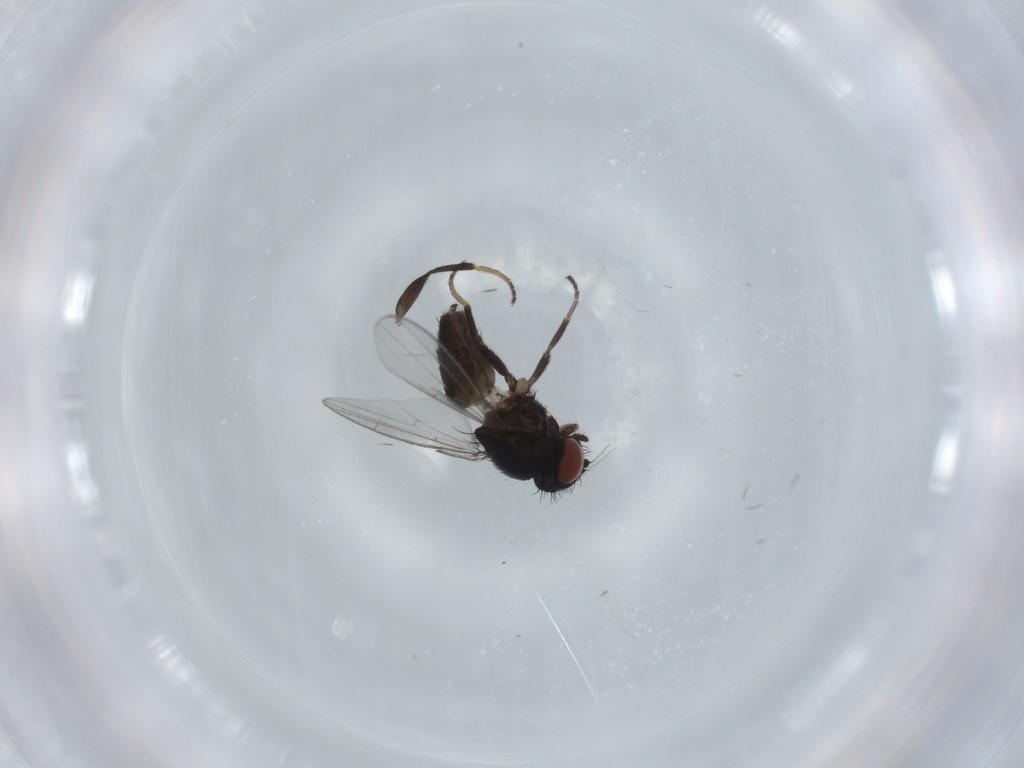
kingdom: Animalia
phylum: Arthropoda
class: Insecta
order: Diptera
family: Milichiidae
